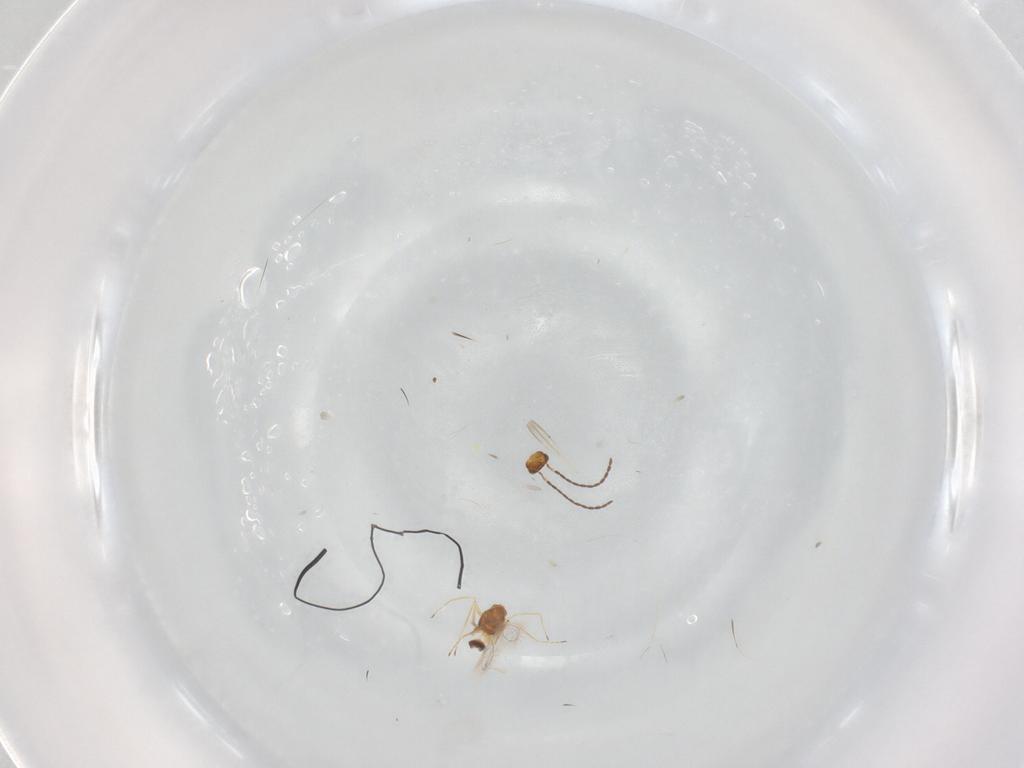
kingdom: Animalia
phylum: Arthropoda
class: Insecta
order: Hymenoptera
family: Mymaridae
